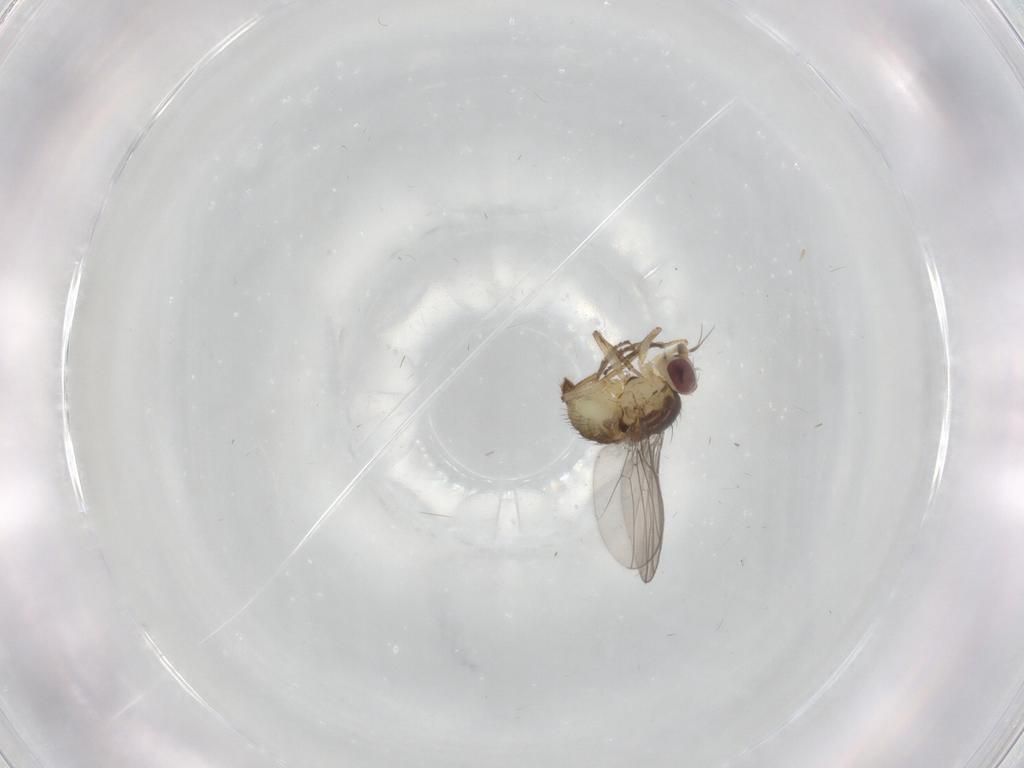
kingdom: Animalia
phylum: Arthropoda
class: Insecta
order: Diptera
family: Agromyzidae
